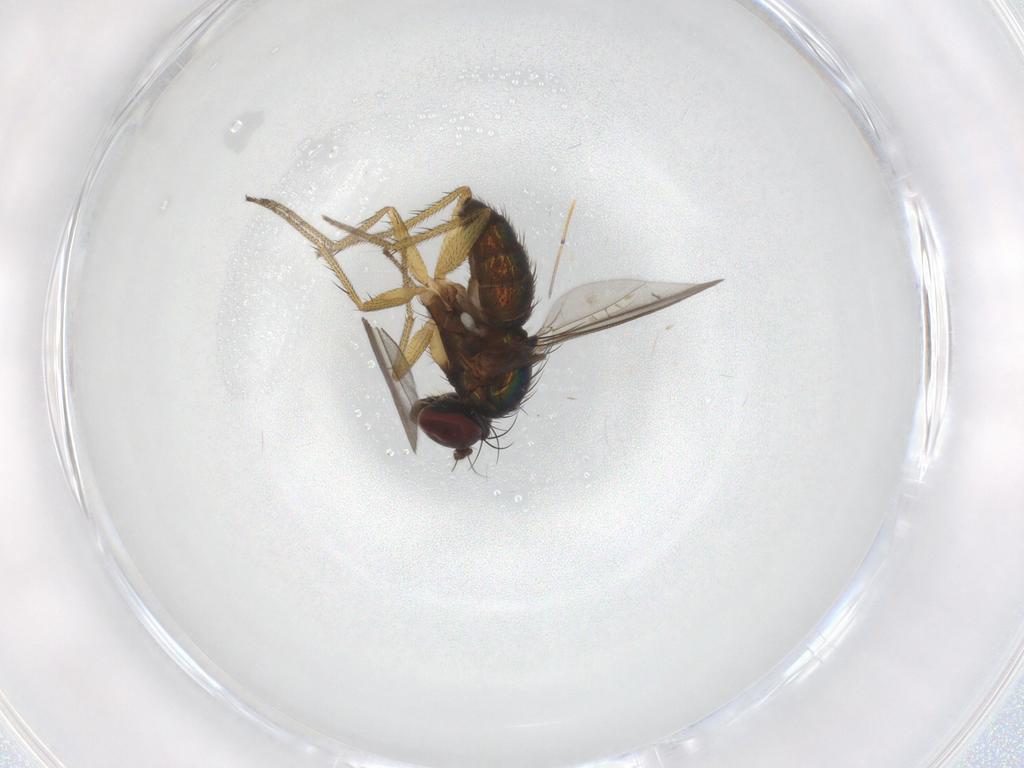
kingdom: Animalia
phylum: Arthropoda
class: Insecta
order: Diptera
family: Dolichopodidae
